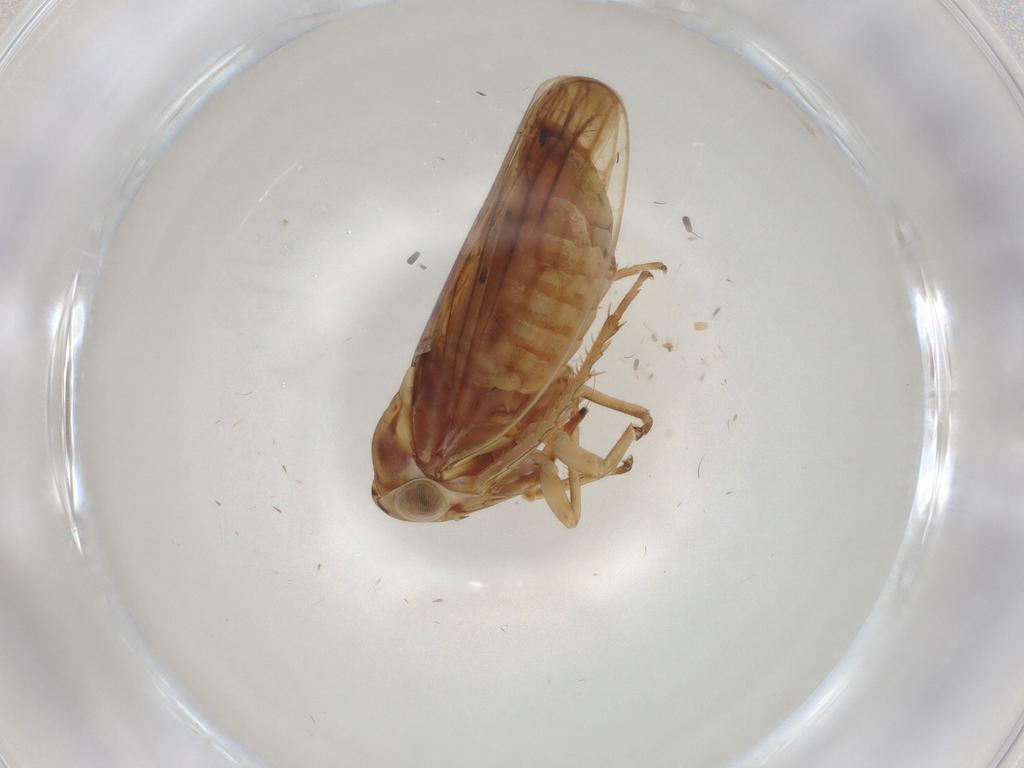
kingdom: Animalia
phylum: Arthropoda
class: Insecta
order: Hemiptera
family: Cicadellidae
